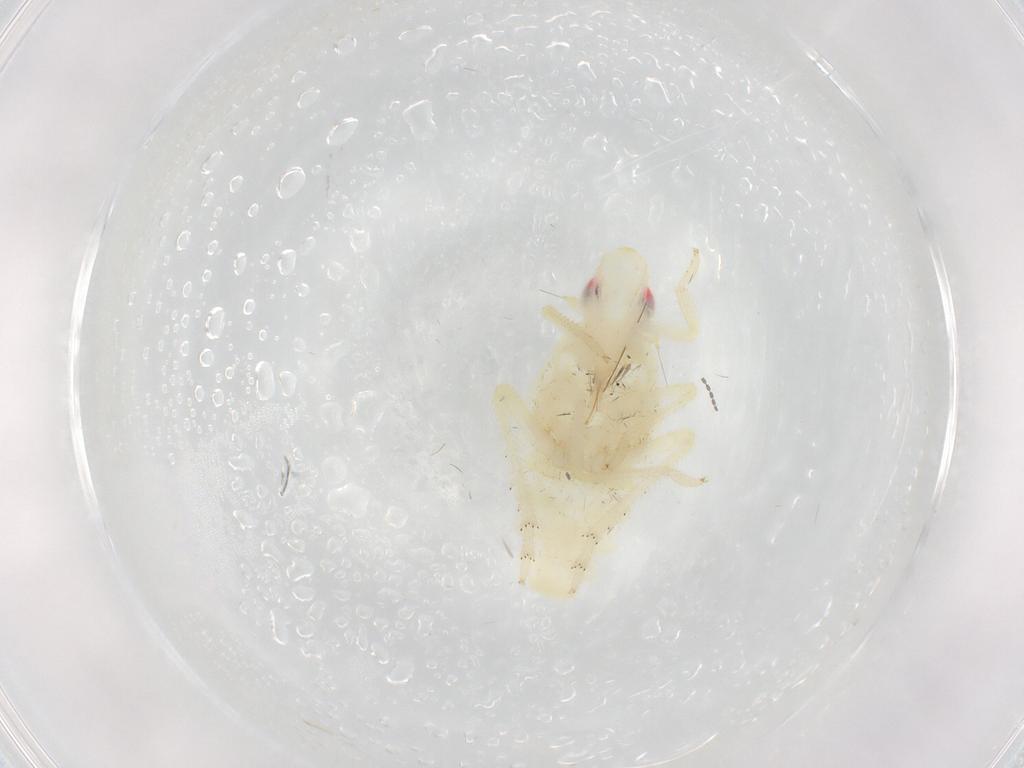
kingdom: Animalia
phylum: Arthropoda
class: Insecta
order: Hemiptera
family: Tropiduchidae
